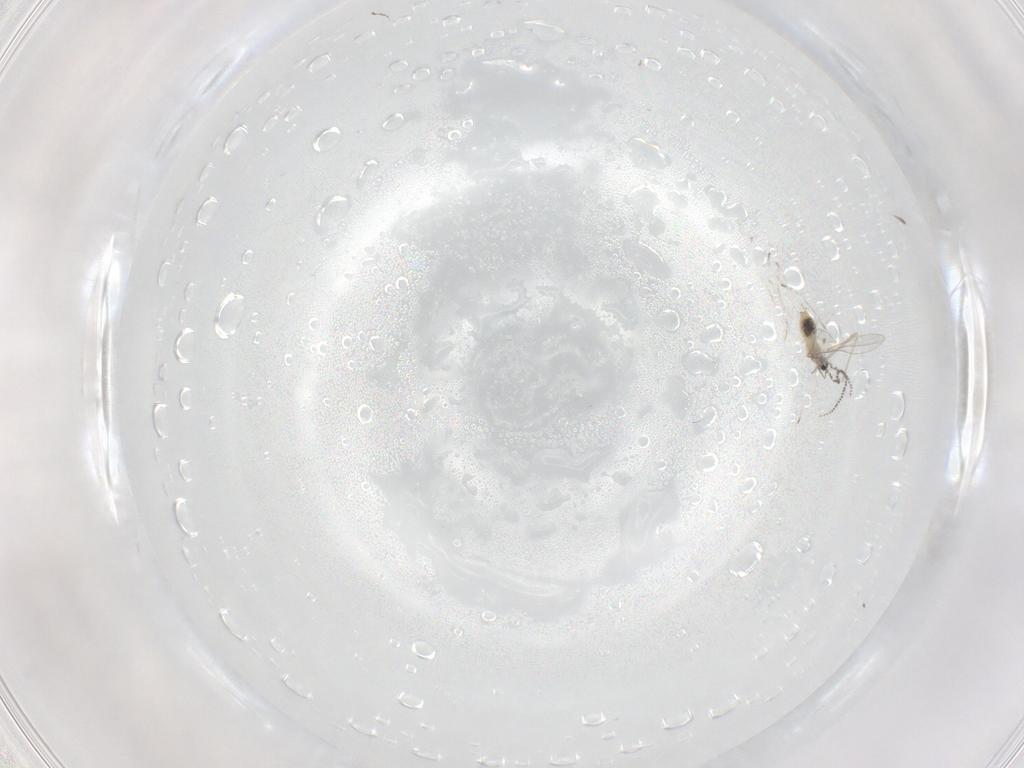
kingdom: Animalia
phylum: Arthropoda
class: Insecta
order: Diptera
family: Cecidomyiidae
